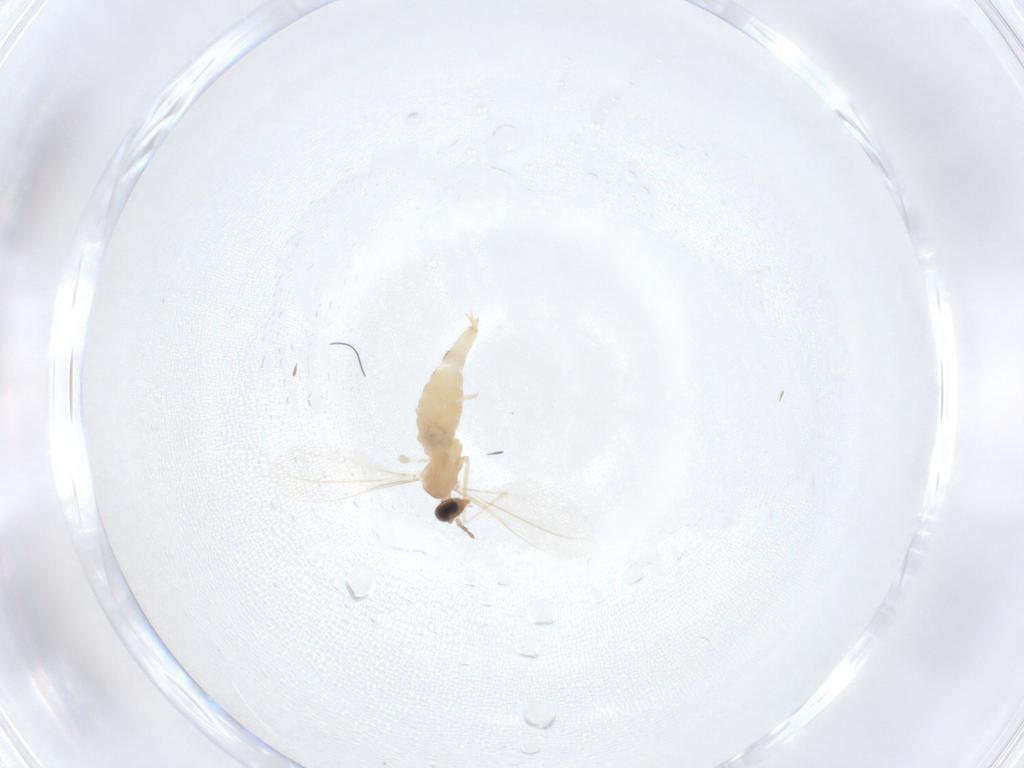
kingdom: Animalia
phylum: Arthropoda
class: Insecta
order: Diptera
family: Cecidomyiidae
